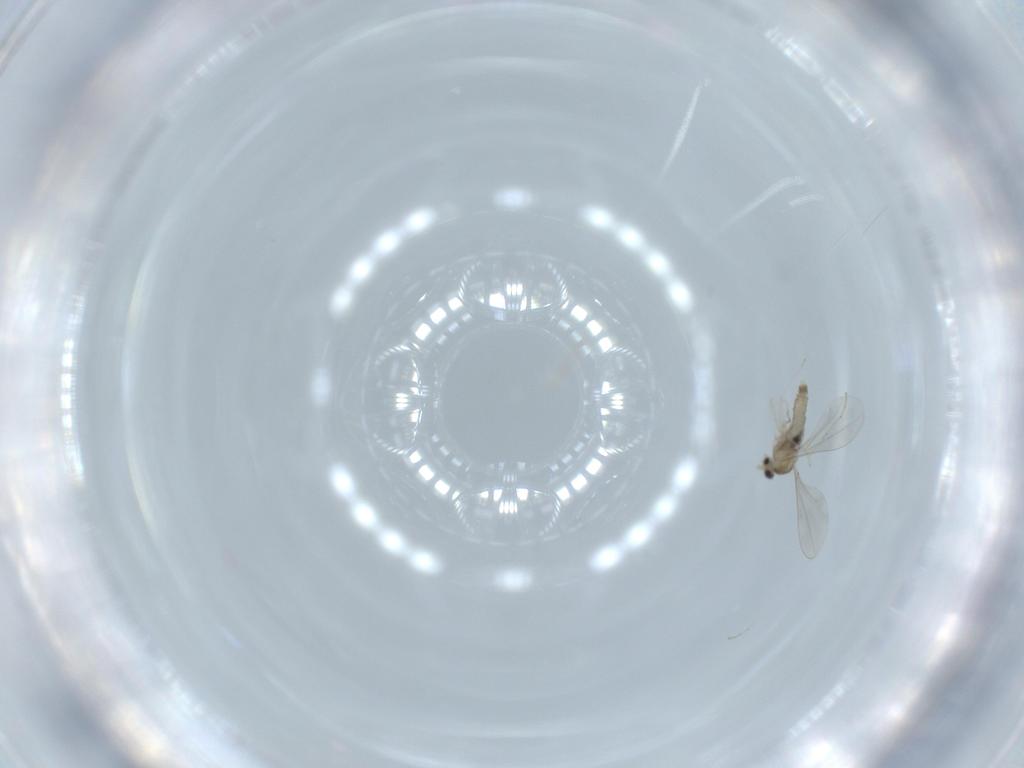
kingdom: Animalia
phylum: Arthropoda
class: Insecta
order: Diptera
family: Cecidomyiidae
